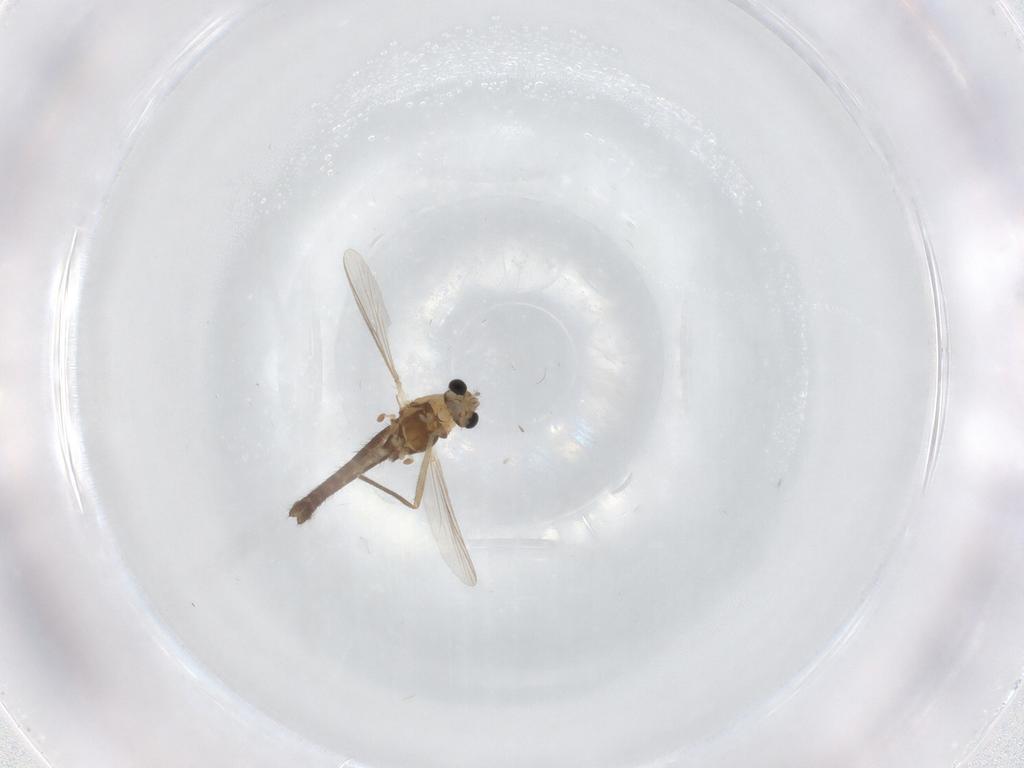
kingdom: Animalia
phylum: Arthropoda
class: Insecta
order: Diptera
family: Chironomidae
